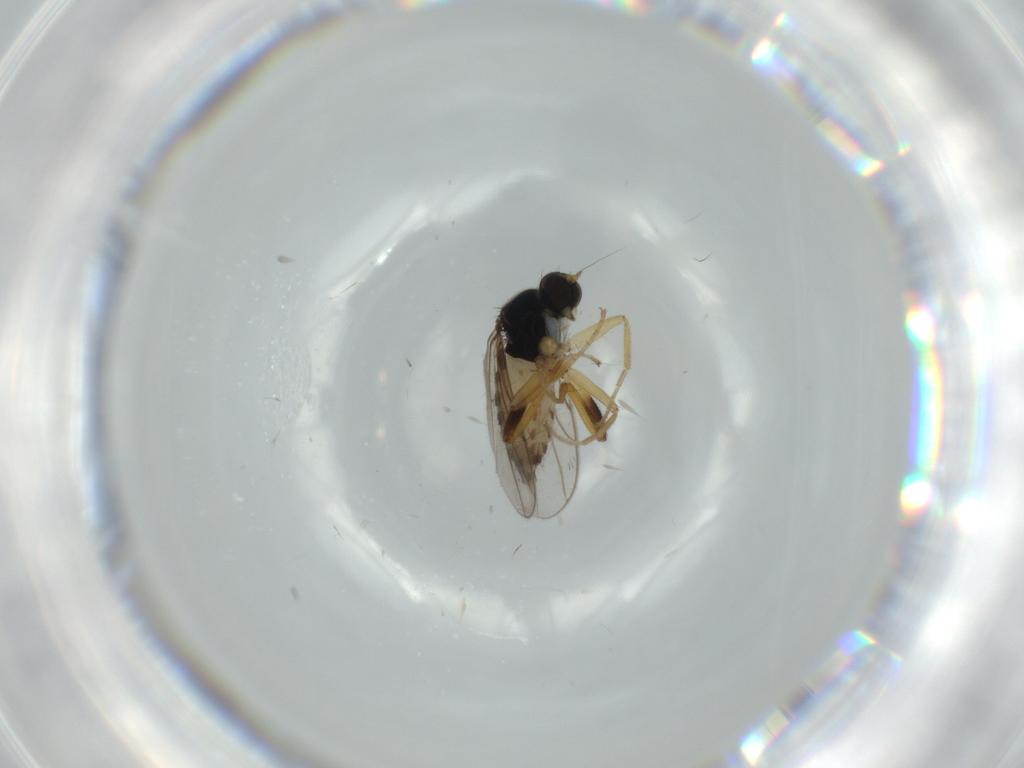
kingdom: Animalia
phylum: Arthropoda
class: Insecta
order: Diptera
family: Hybotidae
